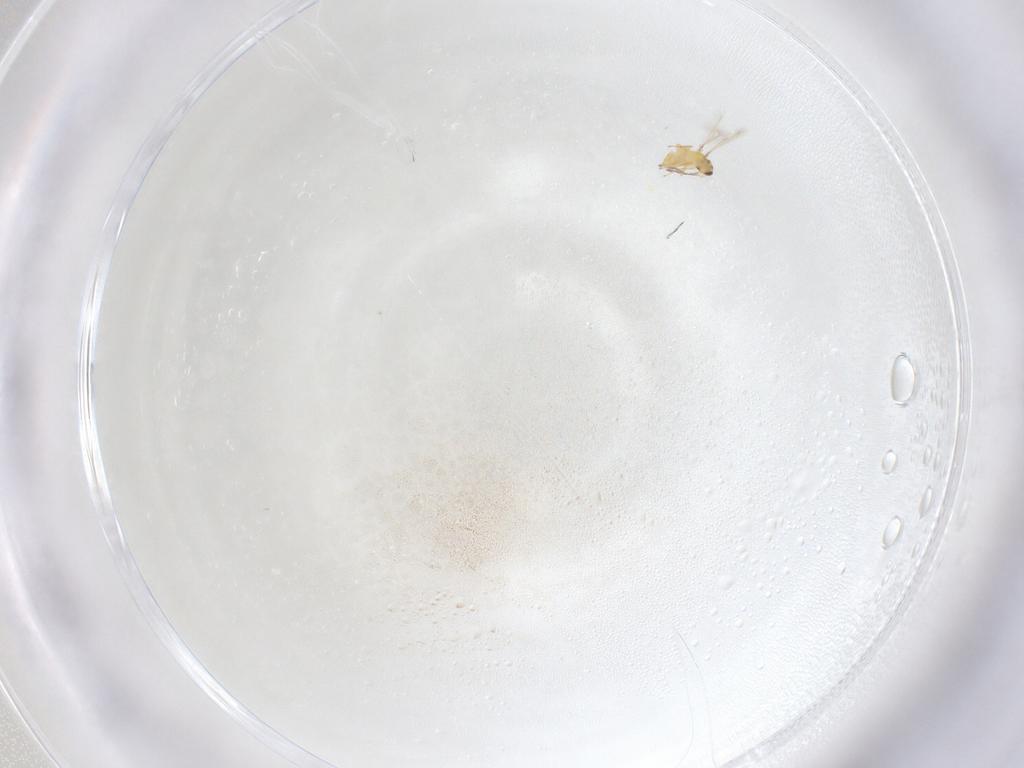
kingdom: Animalia
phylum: Arthropoda
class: Insecta
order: Hymenoptera
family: Mymaridae
